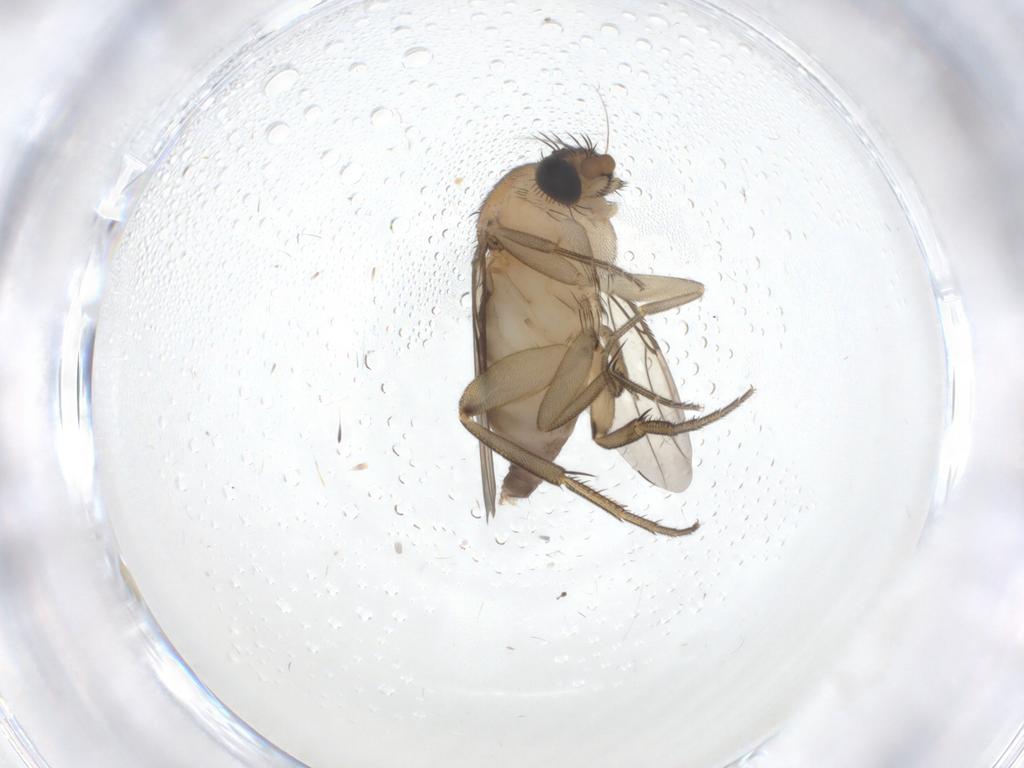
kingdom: Animalia
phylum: Arthropoda
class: Insecta
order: Diptera
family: Phoridae
